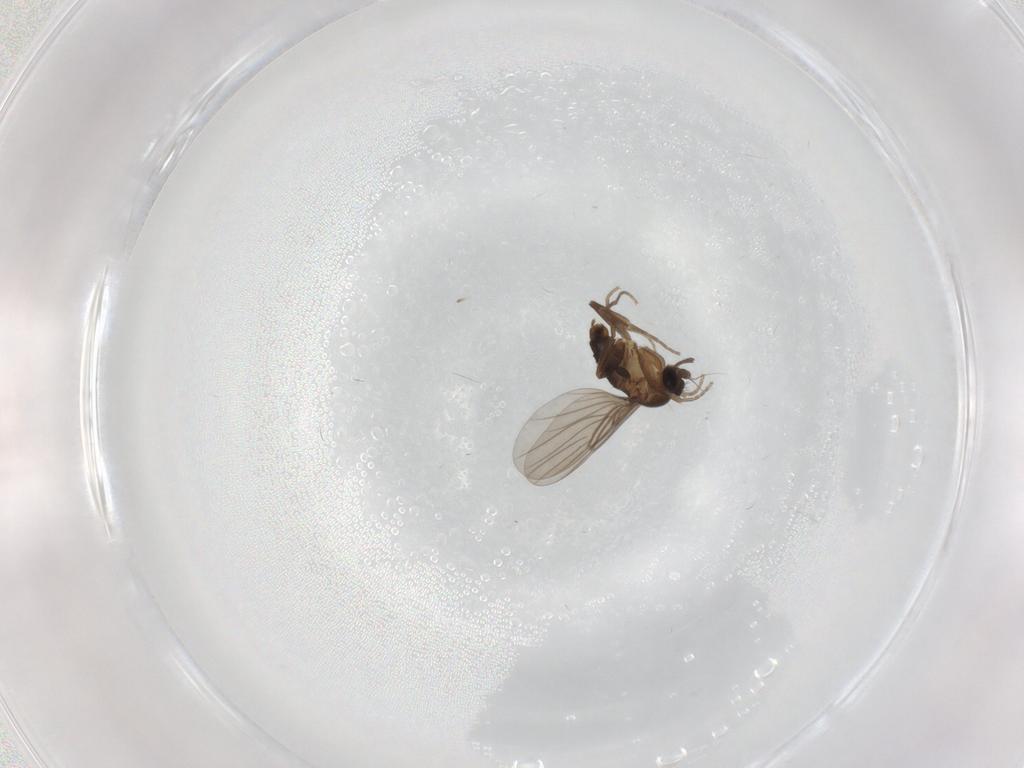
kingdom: Animalia
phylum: Arthropoda
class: Insecta
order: Diptera
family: Psychodidae
